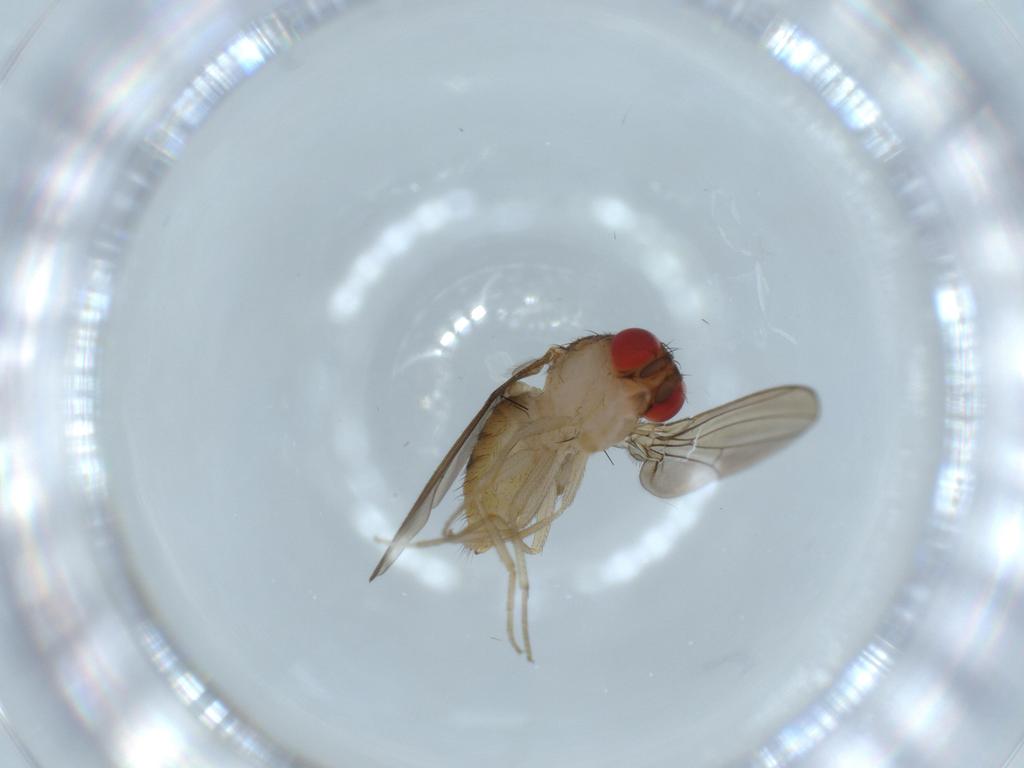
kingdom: Animalia
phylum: Arthropoda
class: Insecta
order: Diptera
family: Drosophilidae
